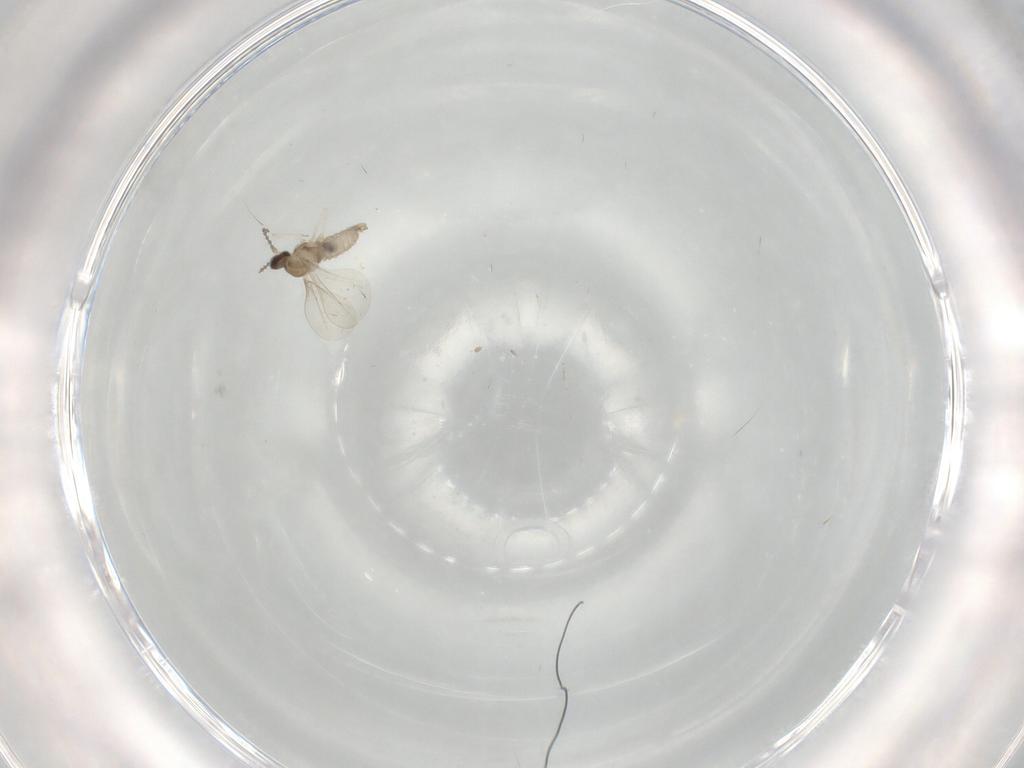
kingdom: Animalia
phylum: Arthropoda
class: Insecta
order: Diptera
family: Cecidomyiidae
